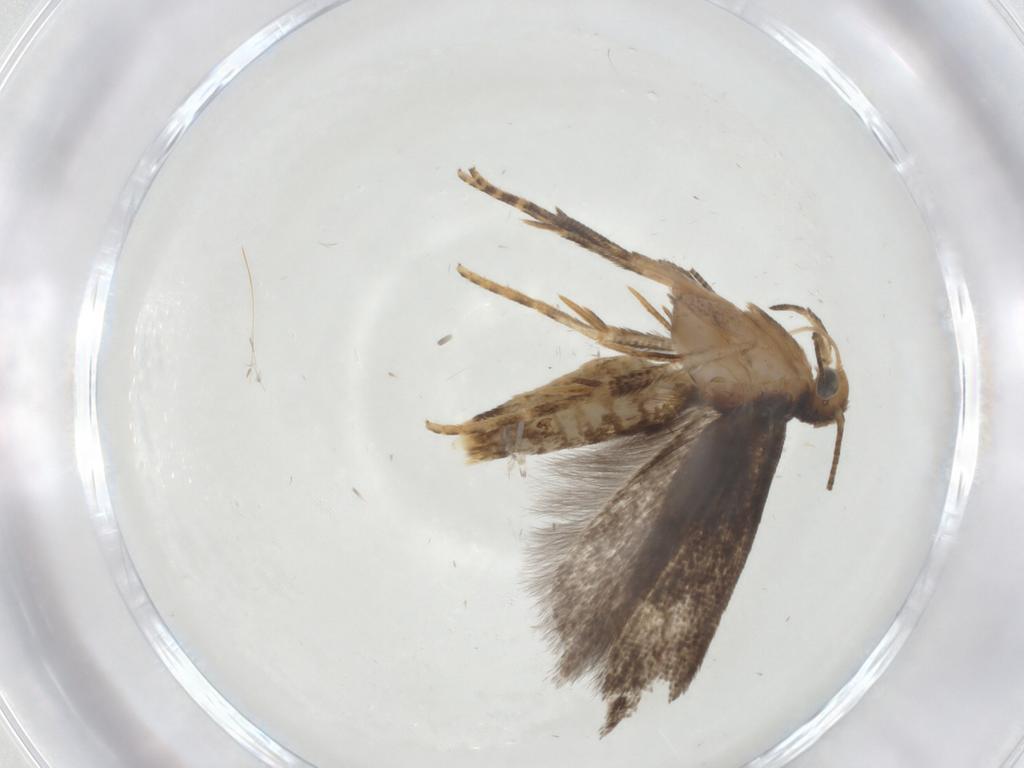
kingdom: Animalia
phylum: Arthropoda
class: Insecta
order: Lepidoptera
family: Gelechiidae
